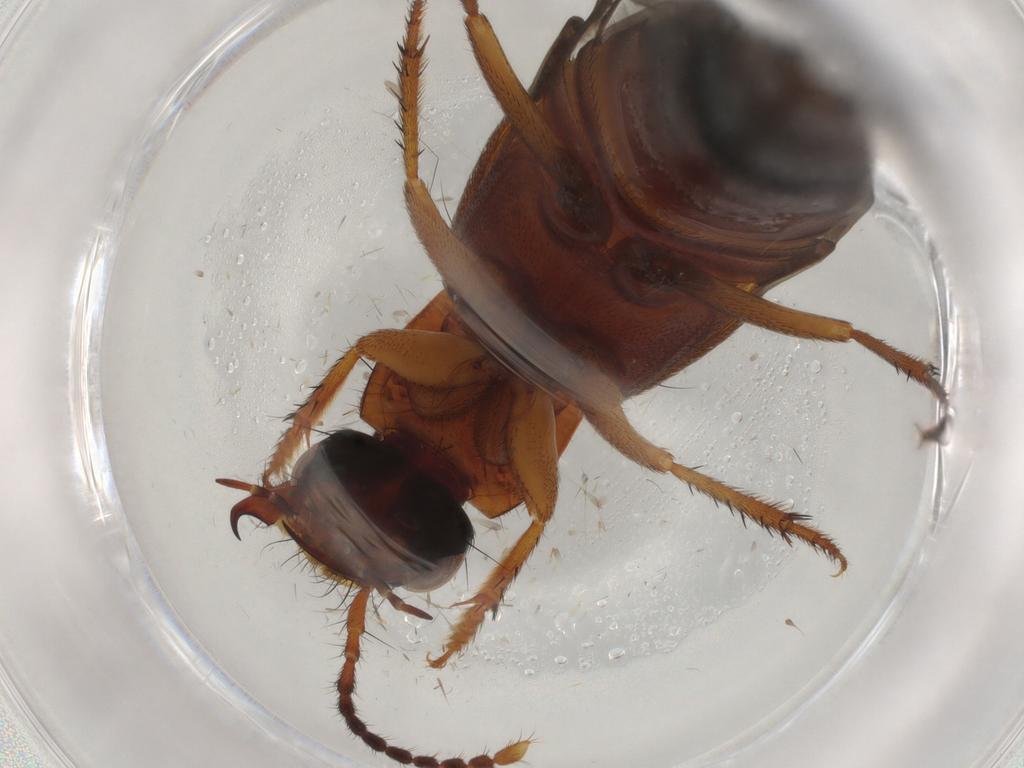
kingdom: Animalia
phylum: Arthropoda
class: Insecta
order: Coleoptera
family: Staphylinidae
